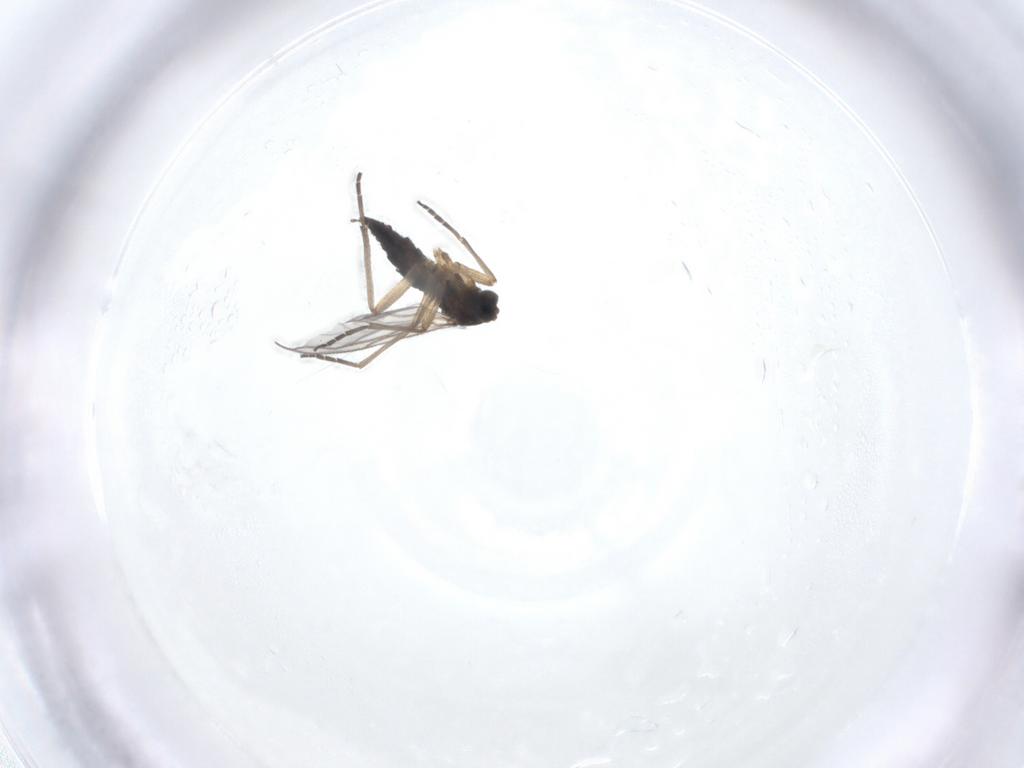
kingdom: Animalia
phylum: Arthropoda
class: Insecta
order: Diptera
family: Sciaridae
